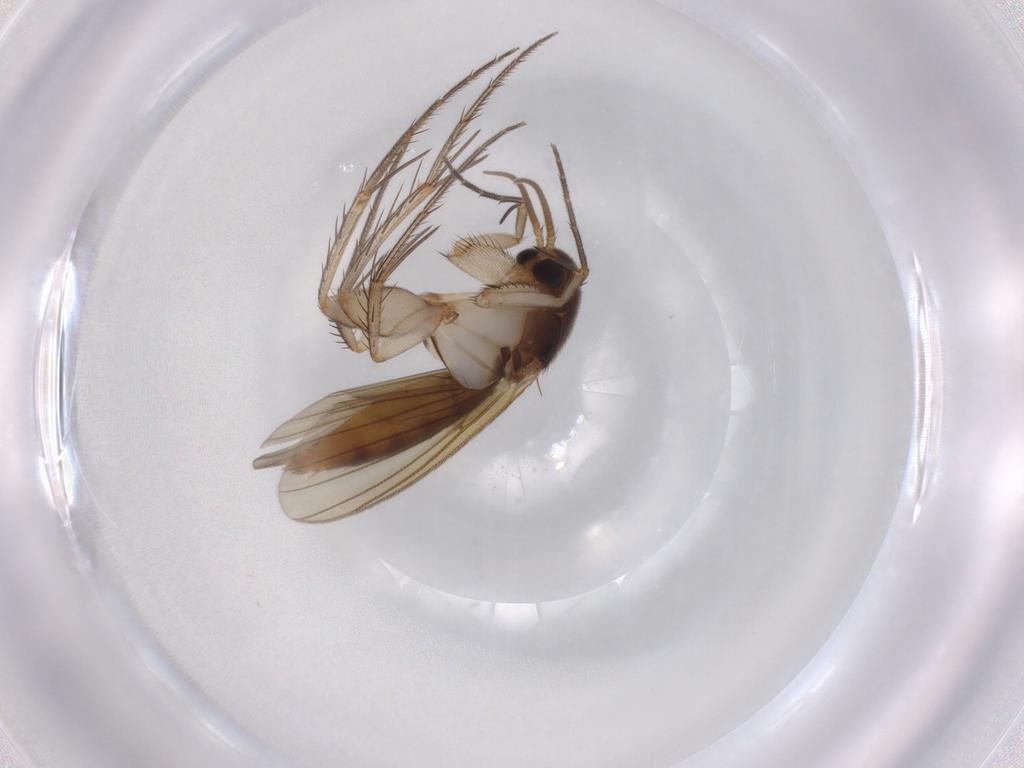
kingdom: Animalia
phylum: Arthropoda
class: Insecta
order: Diptera
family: Mycetophilidae
